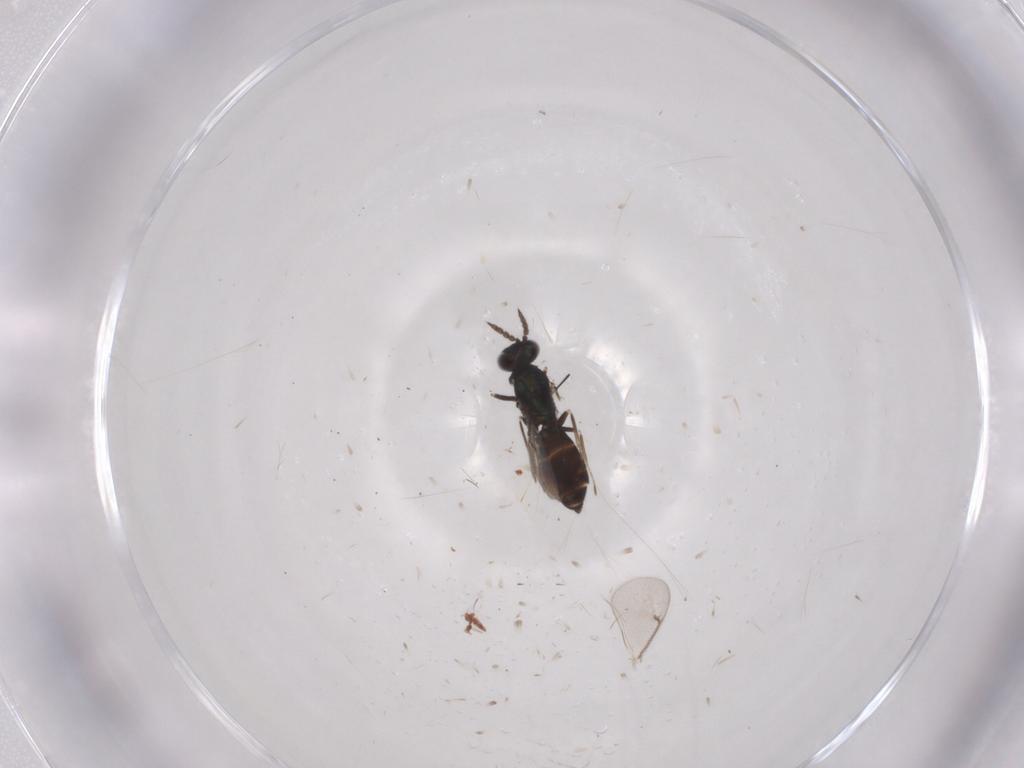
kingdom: Animalia
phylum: Arthropoda
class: Insecta
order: Hymenoptera
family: Eulophidae
